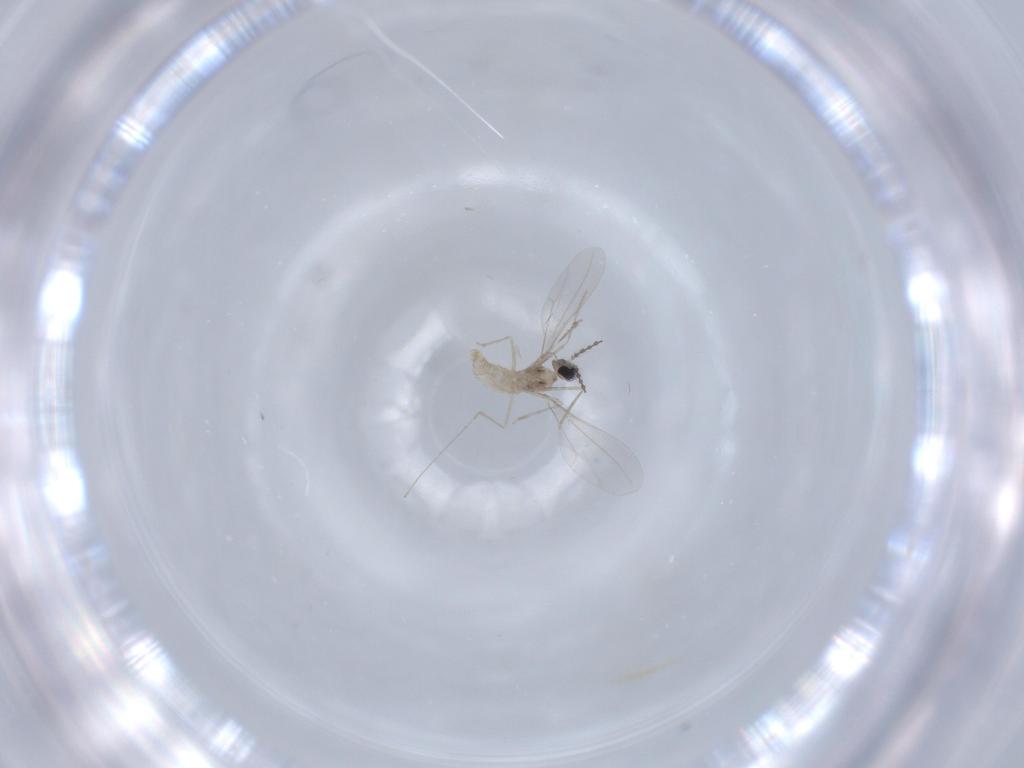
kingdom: Animalia
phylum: Arthropoda
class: Insecta
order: Diptera
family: Cecidomyiidae
